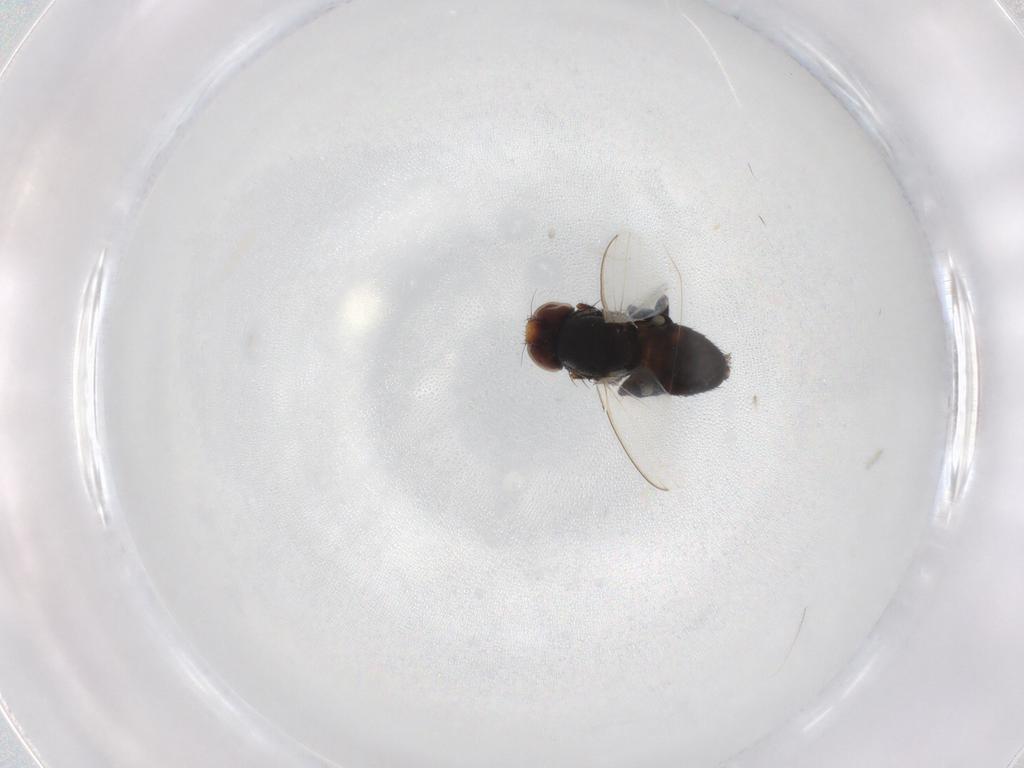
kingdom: Animalia
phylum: Arthropoda
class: Insecta
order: Diptera
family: Milichiidae
